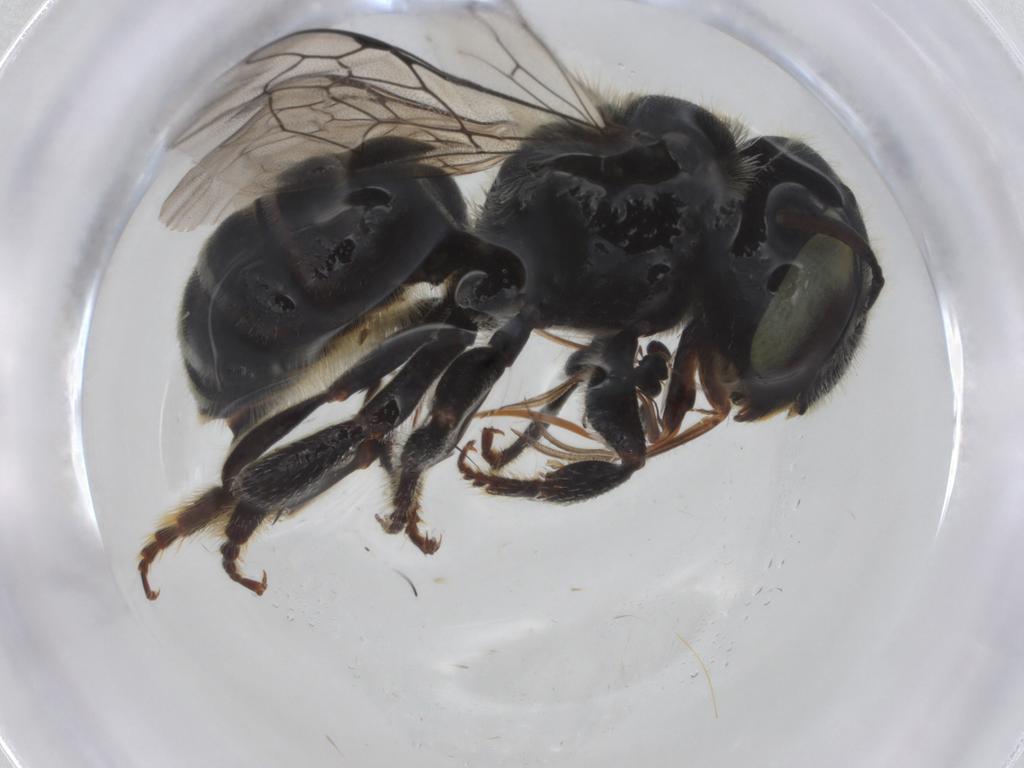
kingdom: Animalia
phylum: Arthropoda
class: Insecta
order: Hymenoptera
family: Megachilidae
